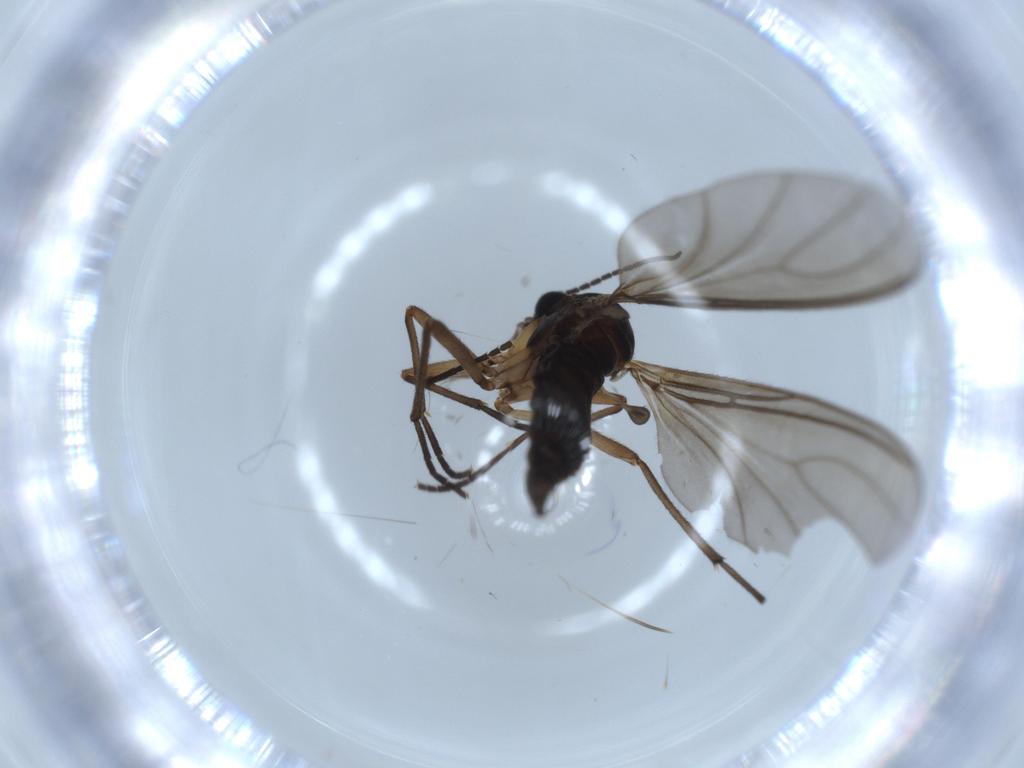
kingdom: Animalia
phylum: Arthropoda
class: Insecta
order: Diptera
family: Sciaridae
